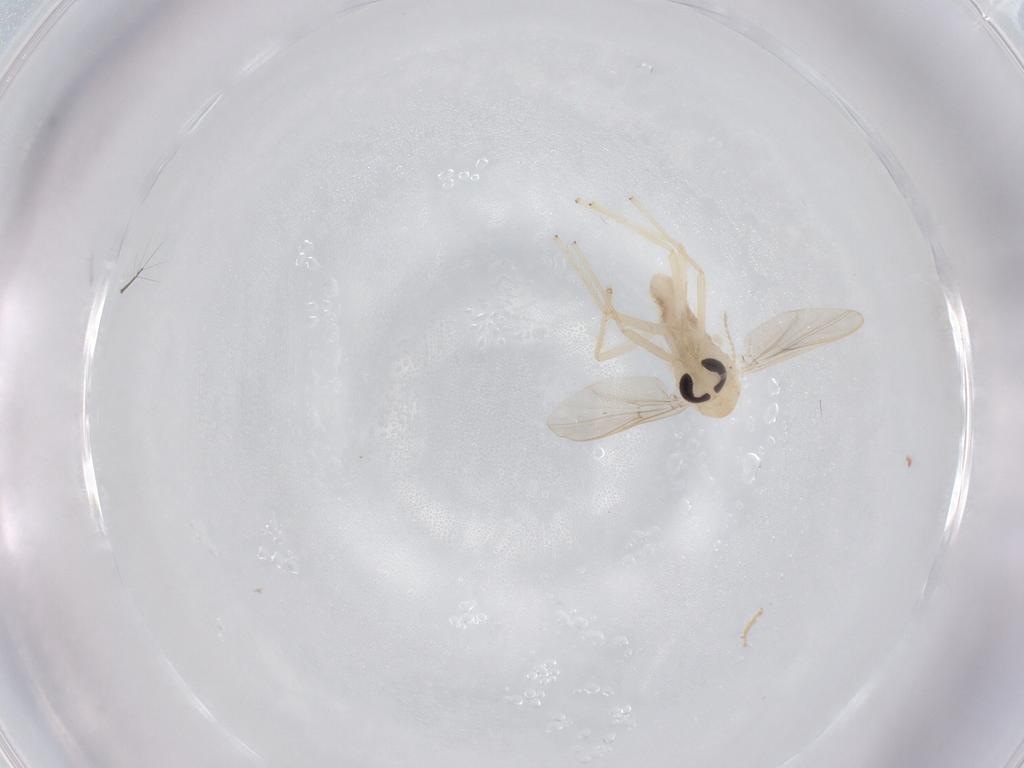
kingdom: Animalia
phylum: Arthropoda
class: Insecta
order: Diptera
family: Chironomidae
